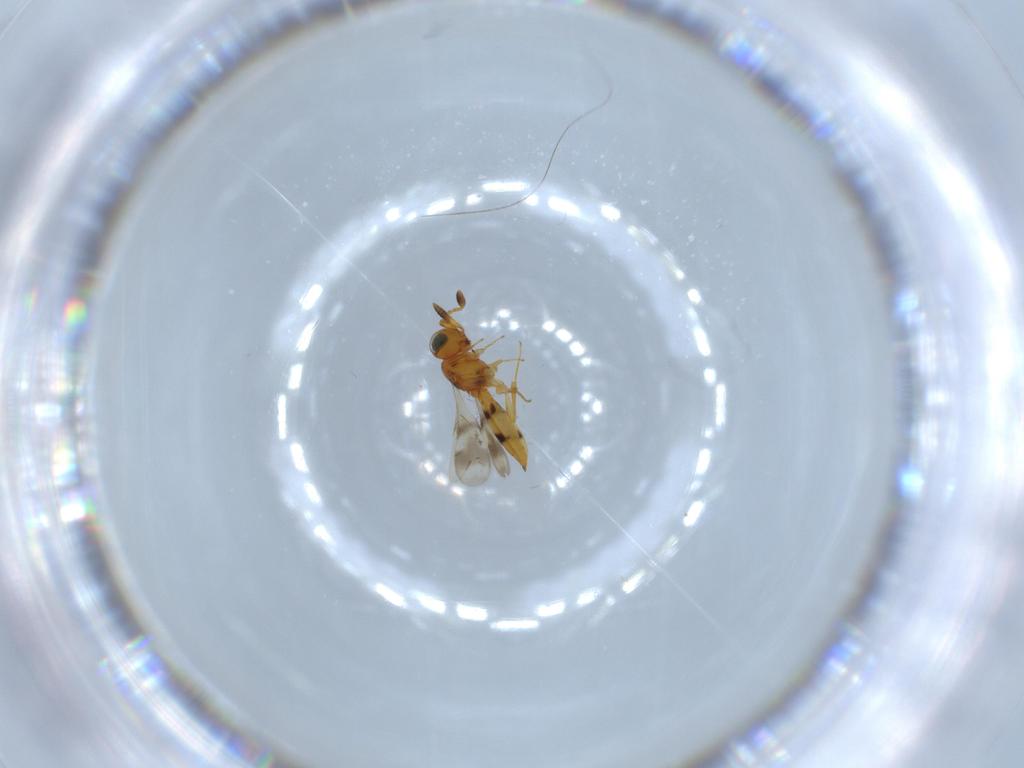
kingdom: Animalia
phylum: Arthropoda
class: Insecta
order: Hymenoptera
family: Scelionidae
